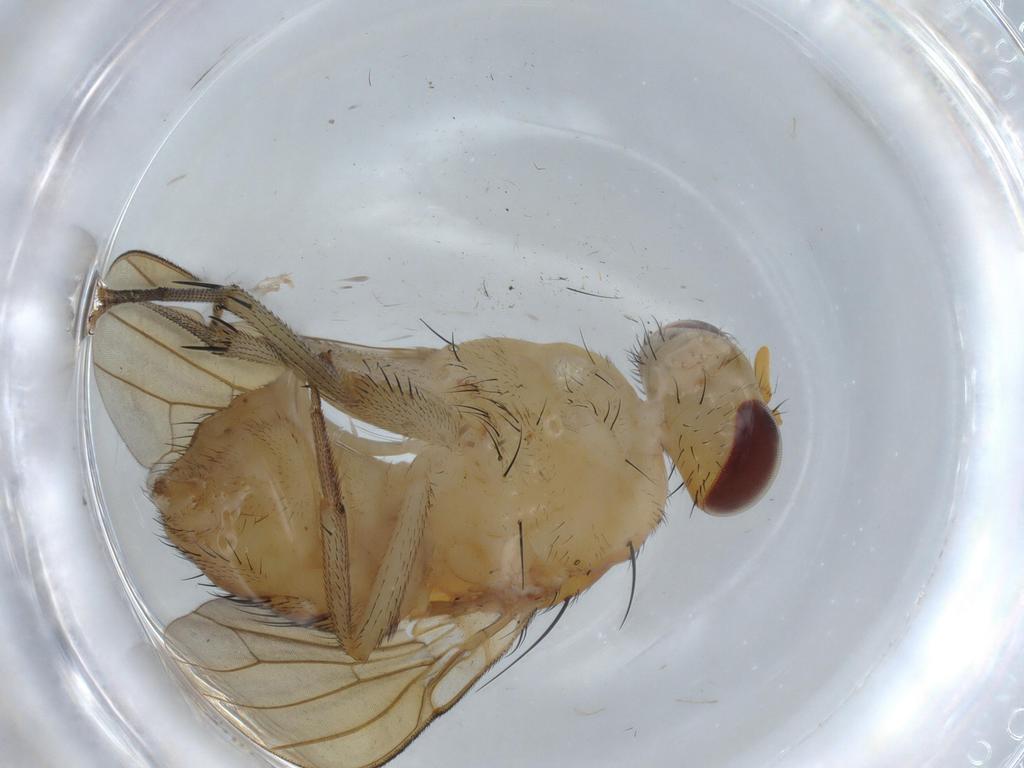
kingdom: Animalia
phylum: Arthropoda
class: Insecta
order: Diptera
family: Cecidomyiidae
